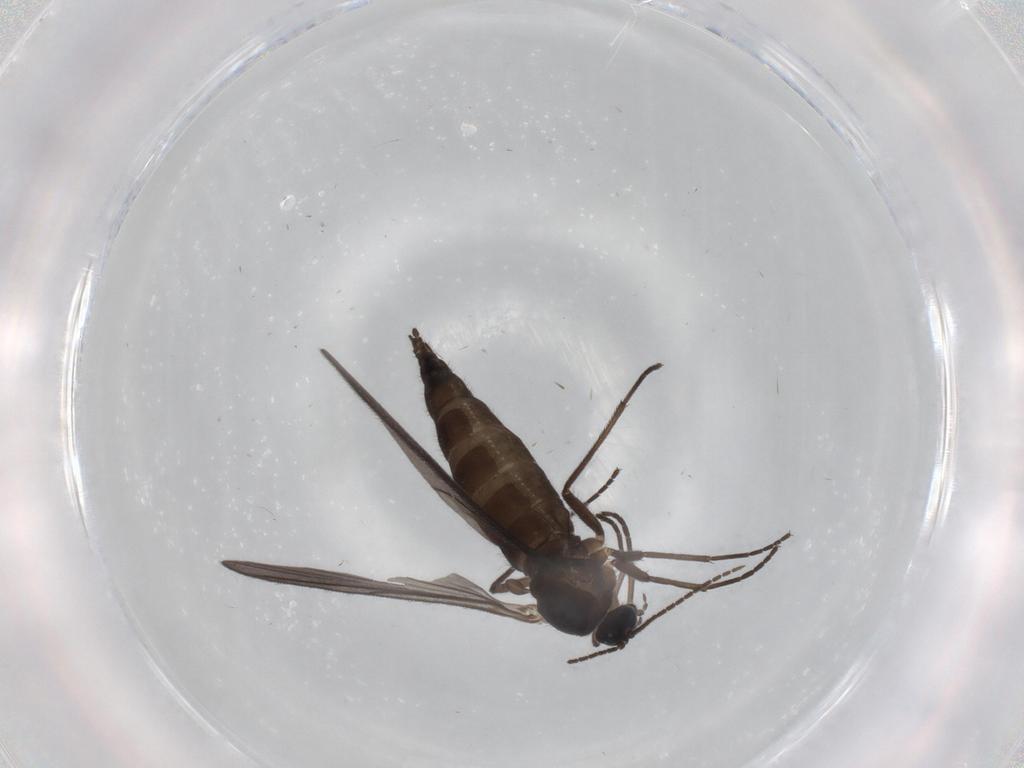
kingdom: Animalia
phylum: Arthropoda
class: Insecta
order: Diptera
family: Sciaridae
